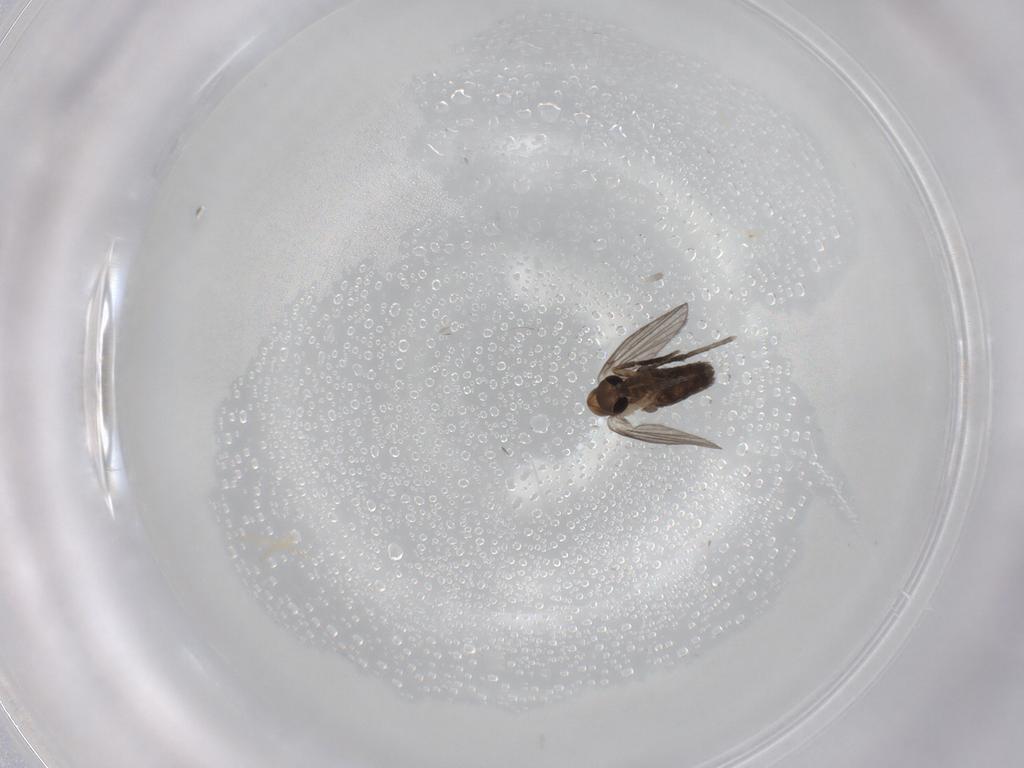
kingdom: Animalia
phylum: Arthropoda
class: Insecta
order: Diptera
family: Psychodidae
